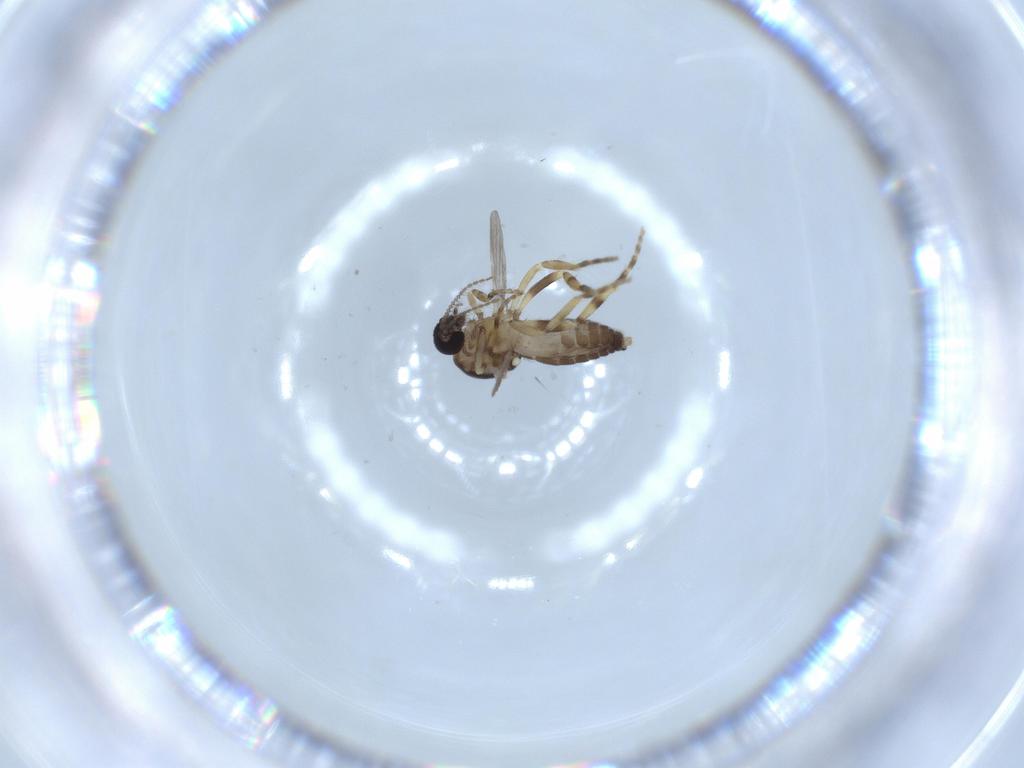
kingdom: Animalia
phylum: Arthropoda
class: Insecta
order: Diptera
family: Cecidomyiidae
